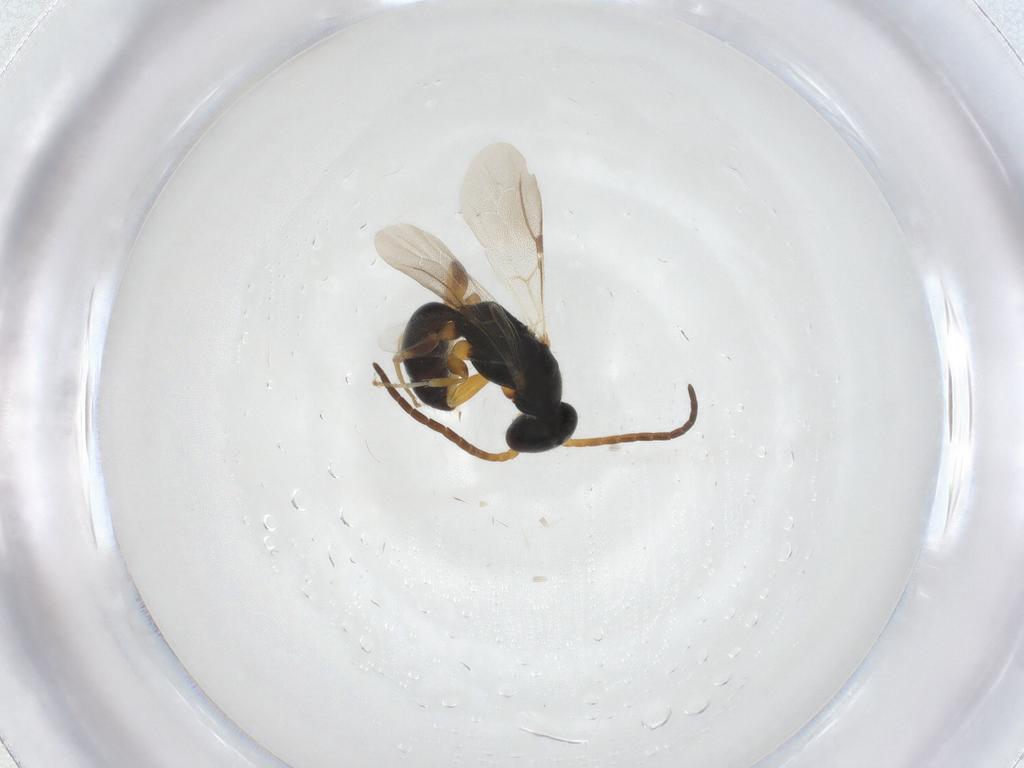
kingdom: Animalia
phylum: Arthropoda
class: Insecta
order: Hymenoptera
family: Bethylidae
